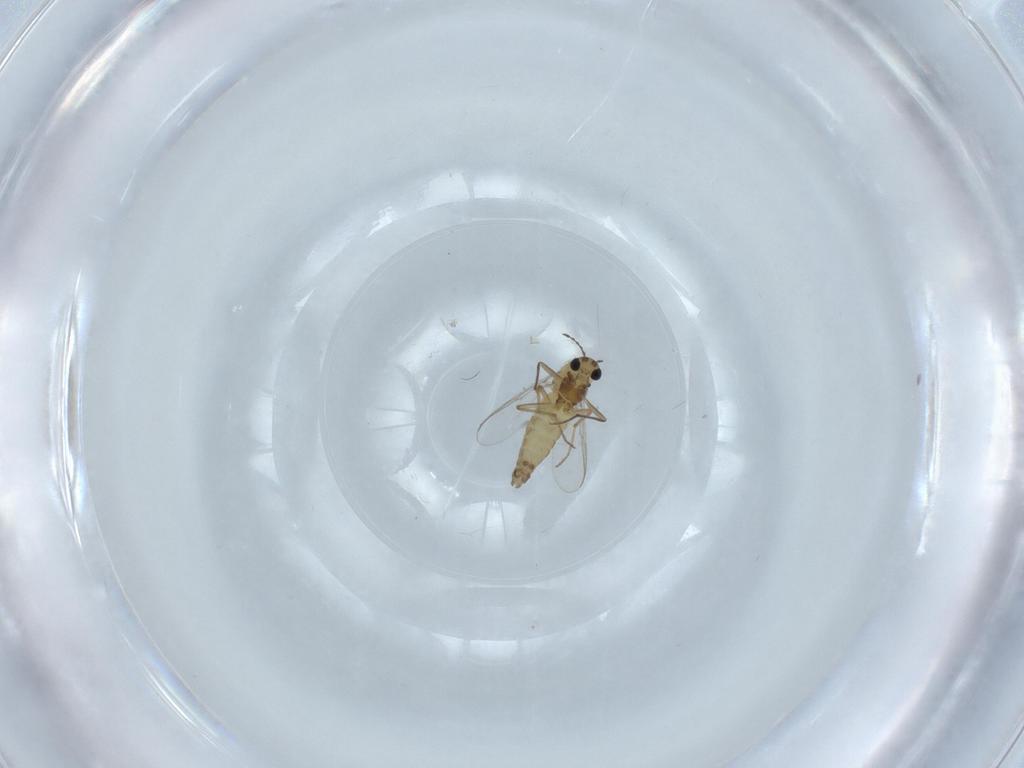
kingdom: Animalia
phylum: Arthropoda
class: Insecta
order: Diptera
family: Chironomidae
